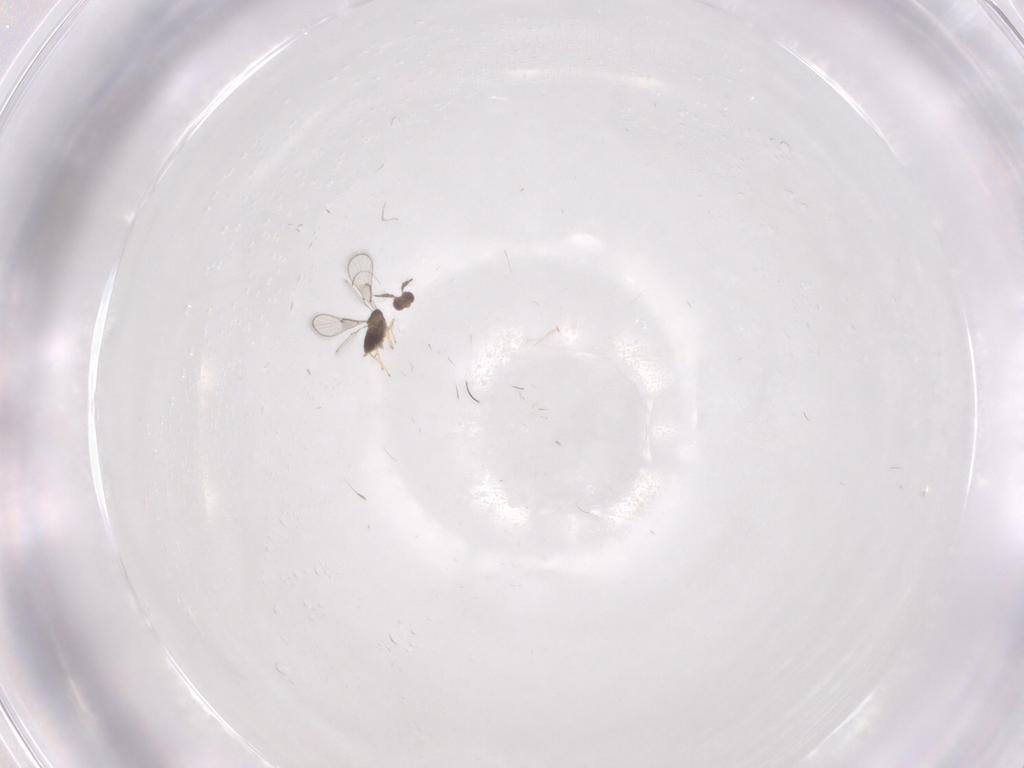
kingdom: Animalia
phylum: Arthropoda
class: Insecta
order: Hymenoptera
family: Trichogrammatidae
